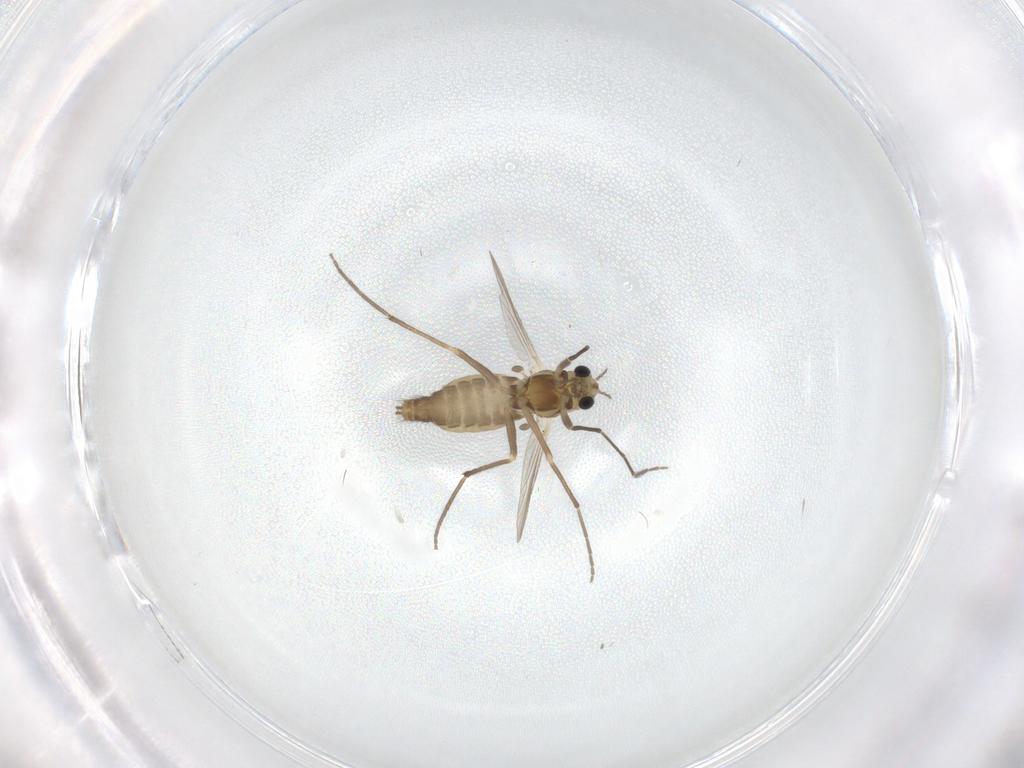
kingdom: Animalia
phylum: Arthropoda
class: Insecta
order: Diptera
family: Chironomidae
